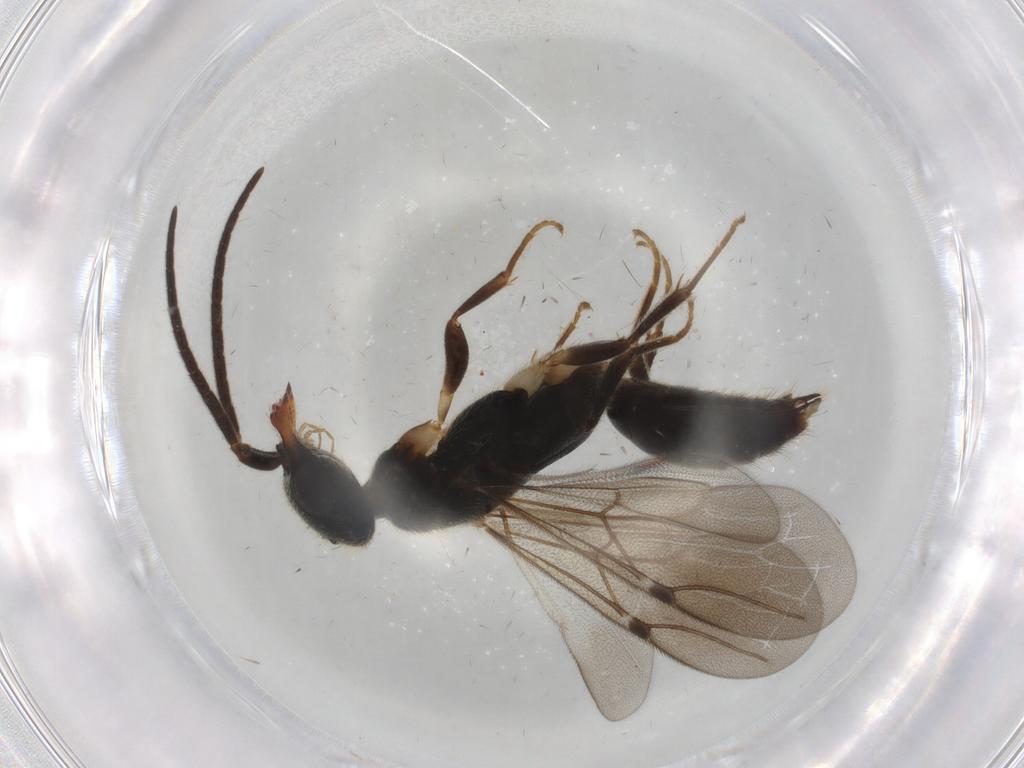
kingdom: Animalia
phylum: Arthropoda
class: Insecta
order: Hymenoptera
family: Bethylidae
